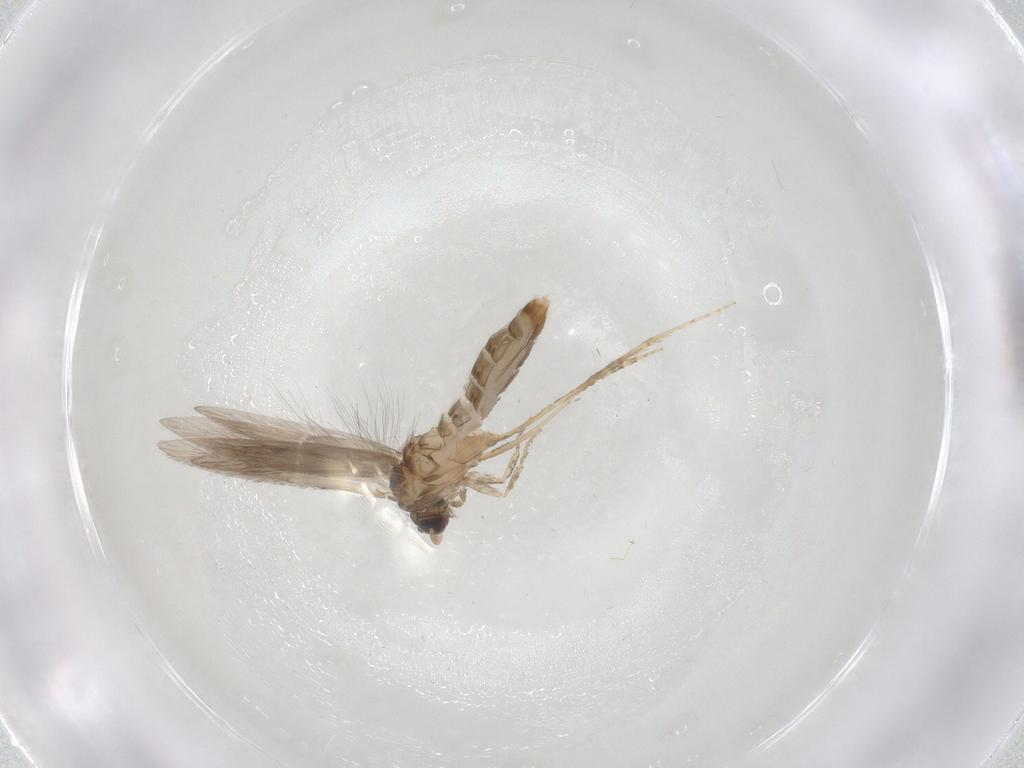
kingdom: Animalia
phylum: Arthropoda
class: Insecta
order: Trichoptera
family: Hydroptilidae
